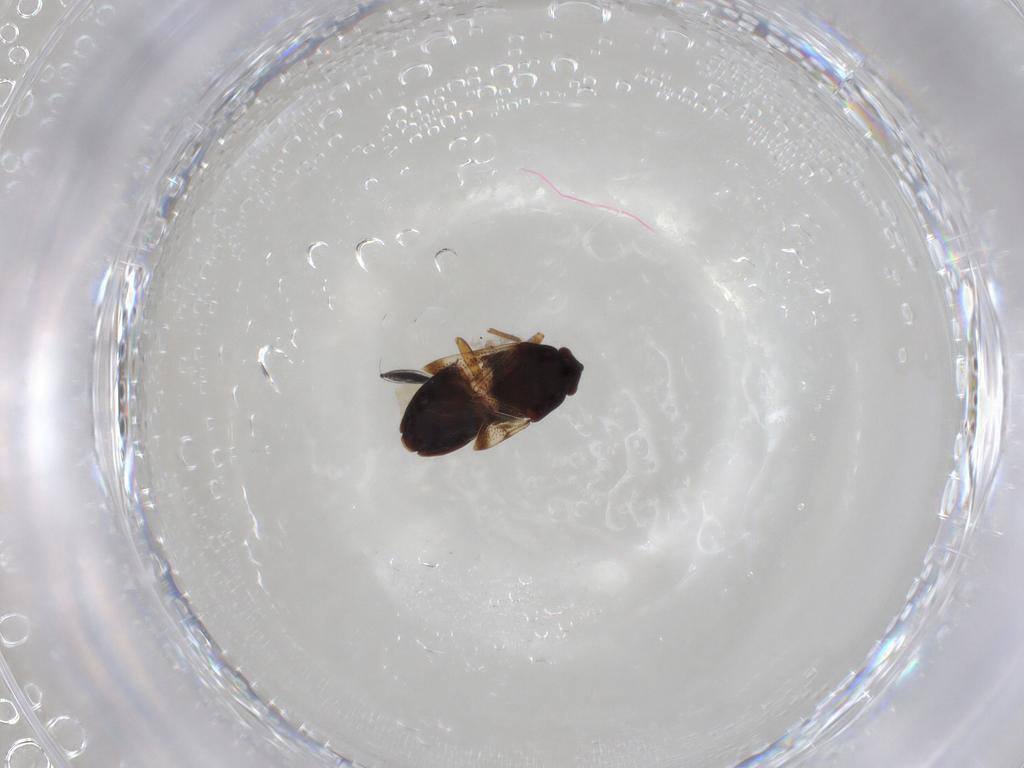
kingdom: Animalia
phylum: Arthropoda
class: Insecta
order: Hemiptera
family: Rhyparochromidae
